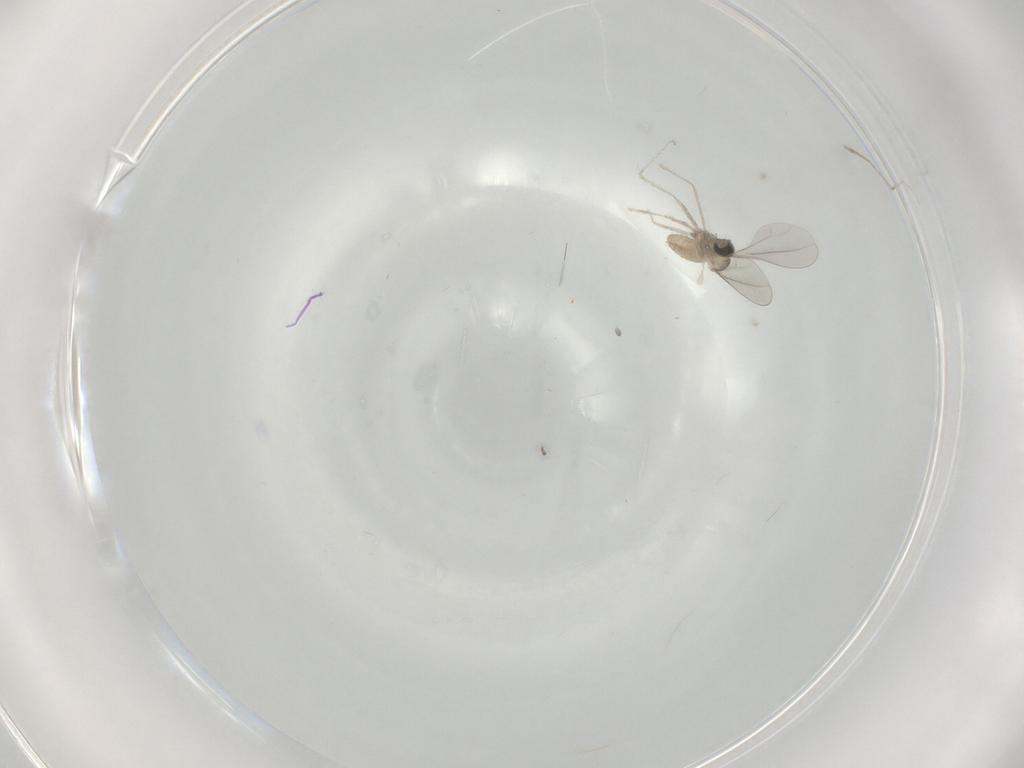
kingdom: Animalia
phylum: Arthropoda
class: Insecta
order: Diptera
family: Cecidomyiidae
